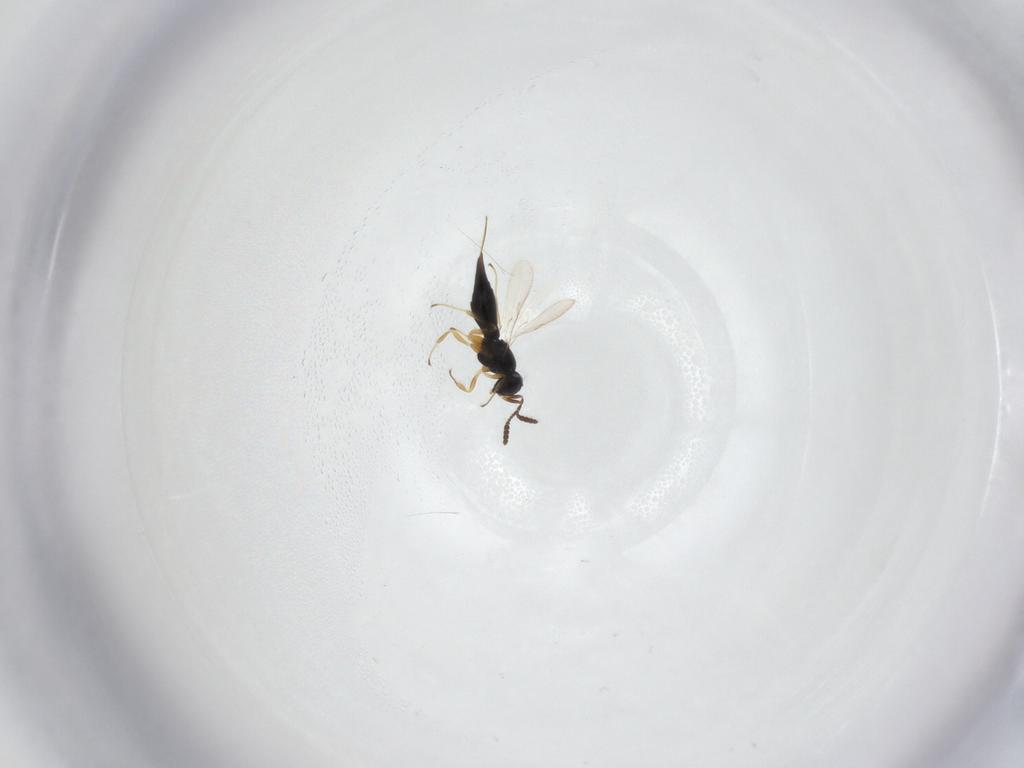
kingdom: Animalia
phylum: Arthropoda
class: Insecta
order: Hymenoptera
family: Scelionidae
